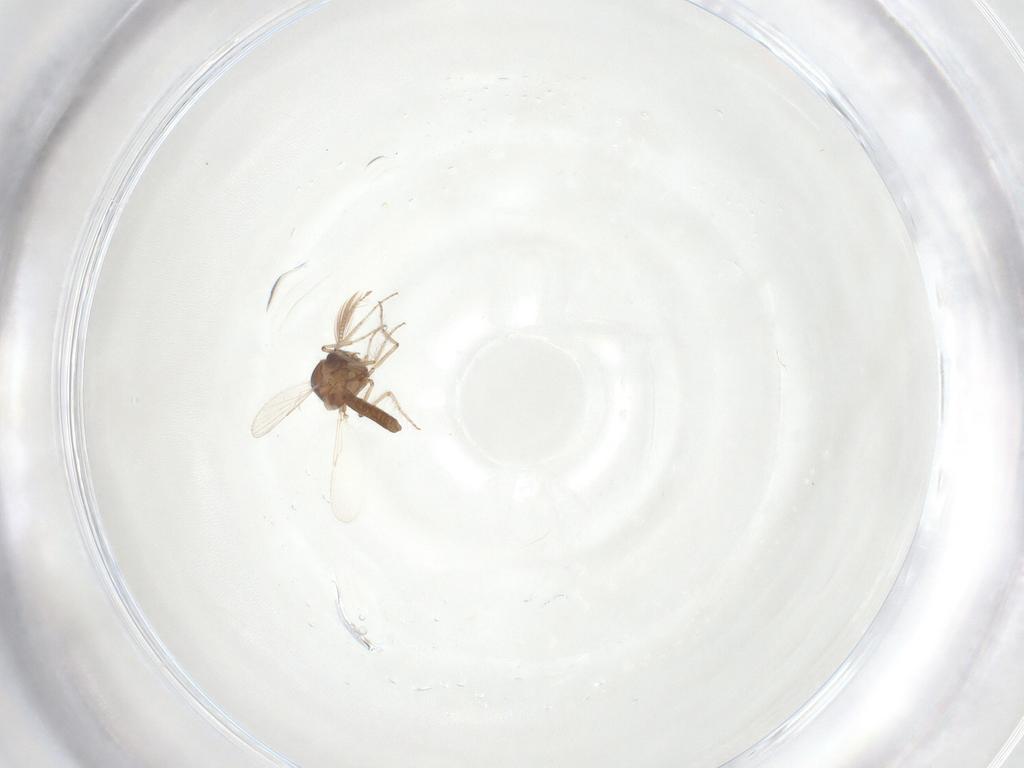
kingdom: Animalia
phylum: Arthropoda
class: Insecta
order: Diptera
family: Ceratopogonidae
